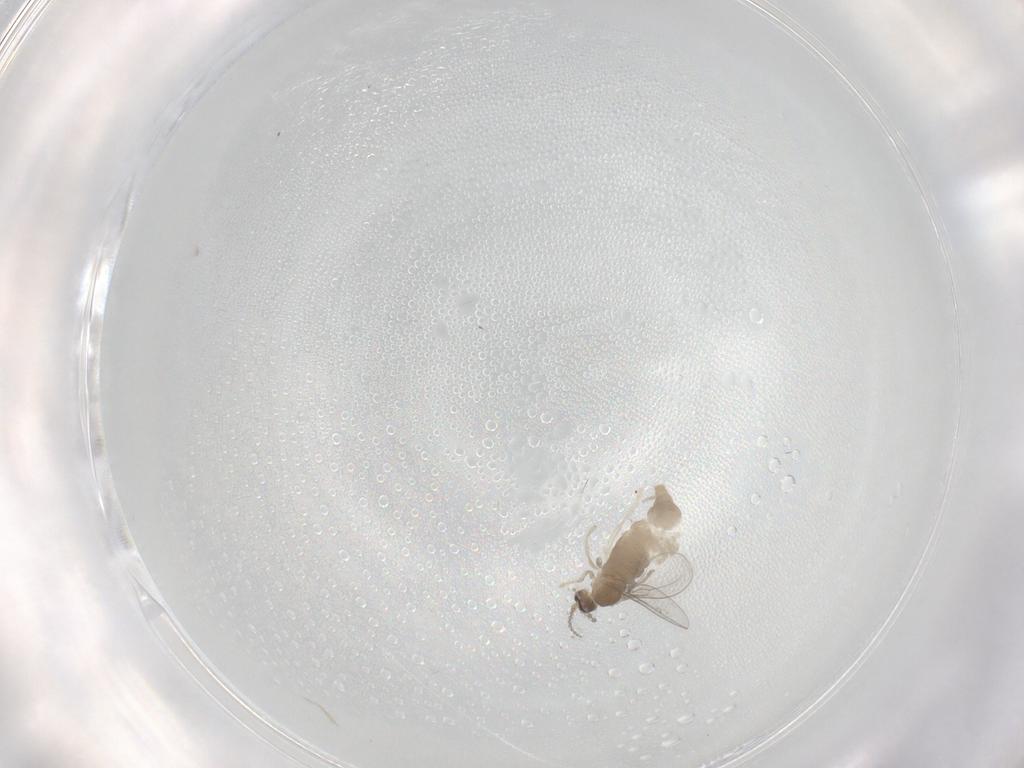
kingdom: Animalia
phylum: Arthropoda
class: Insecta
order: Diptera
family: Cecidomyiidae
